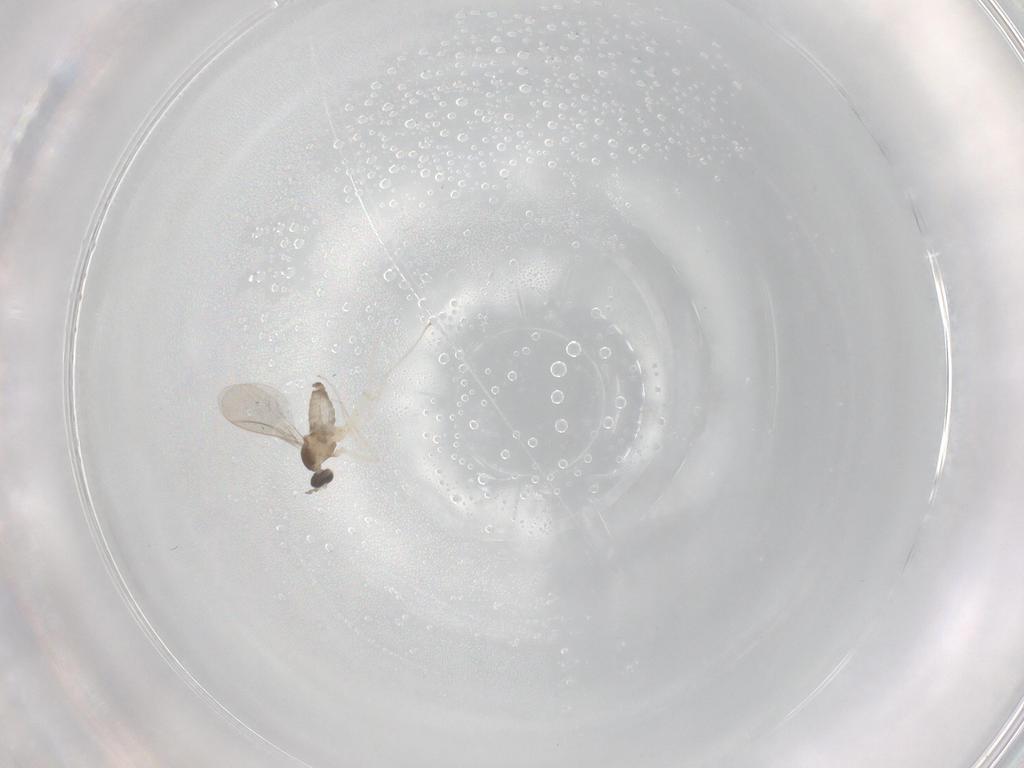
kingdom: Animalia
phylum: Arthropoda
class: Insecta
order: Diptera
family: Cecidomyiidae
